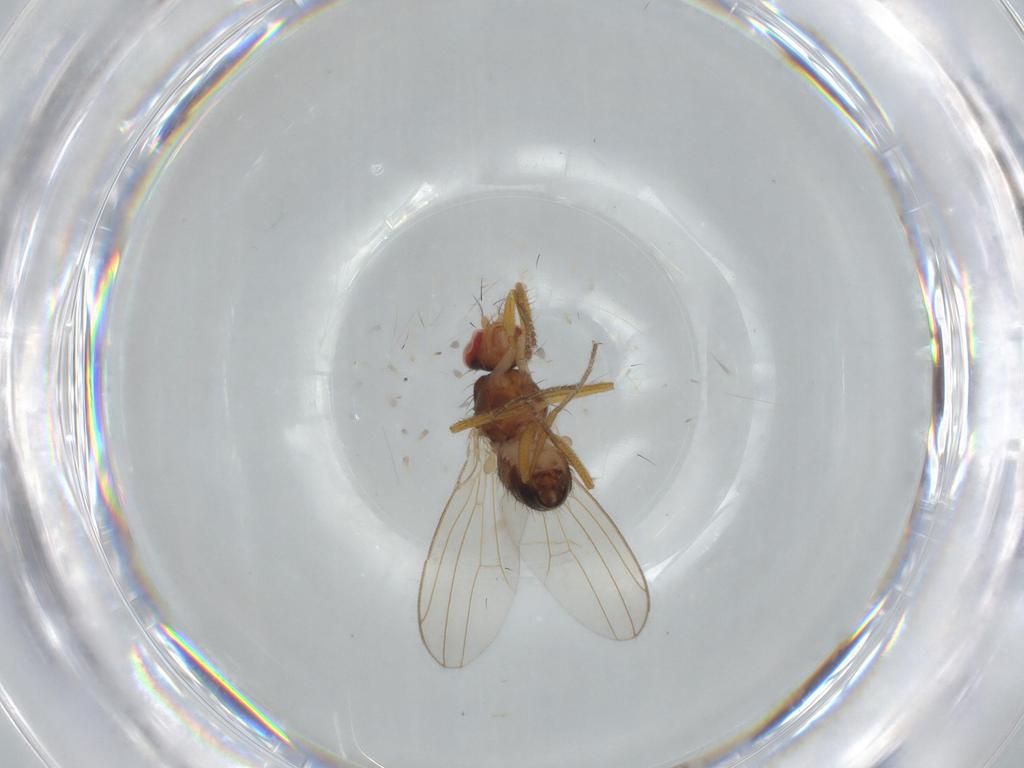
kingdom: Animalia
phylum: Arthropoda
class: Insecta
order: Diptera
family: Drosophilidae
